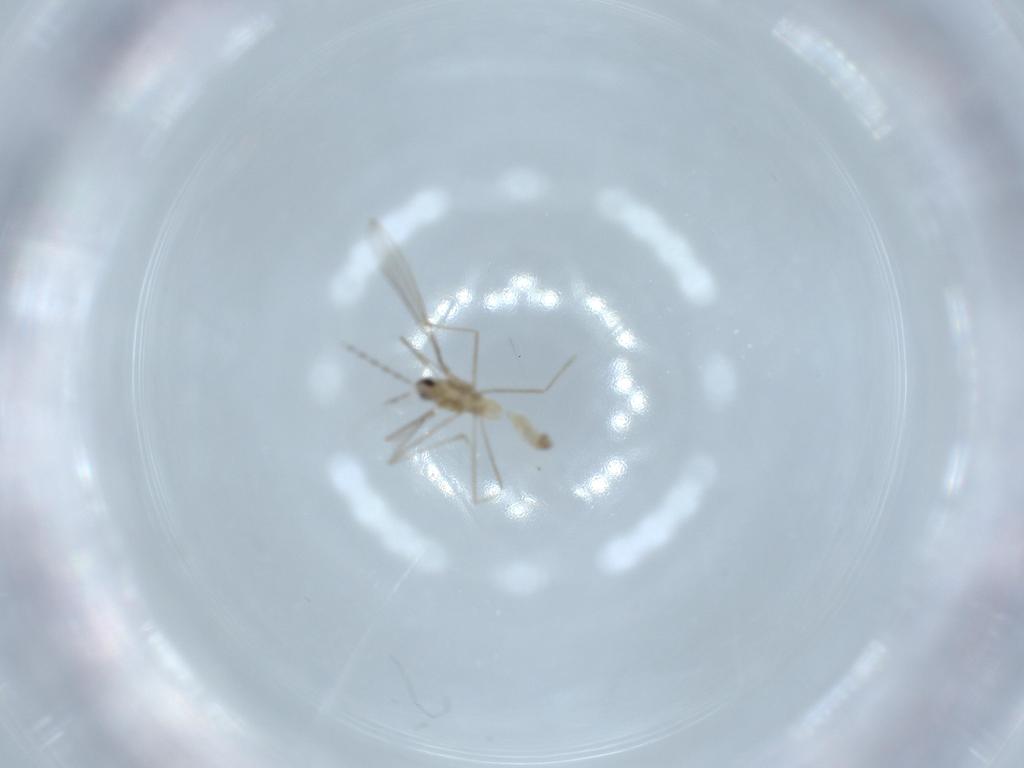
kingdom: Animalia
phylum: Arthropoda
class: Insecta
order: Diptera
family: Cecidomyiidae
